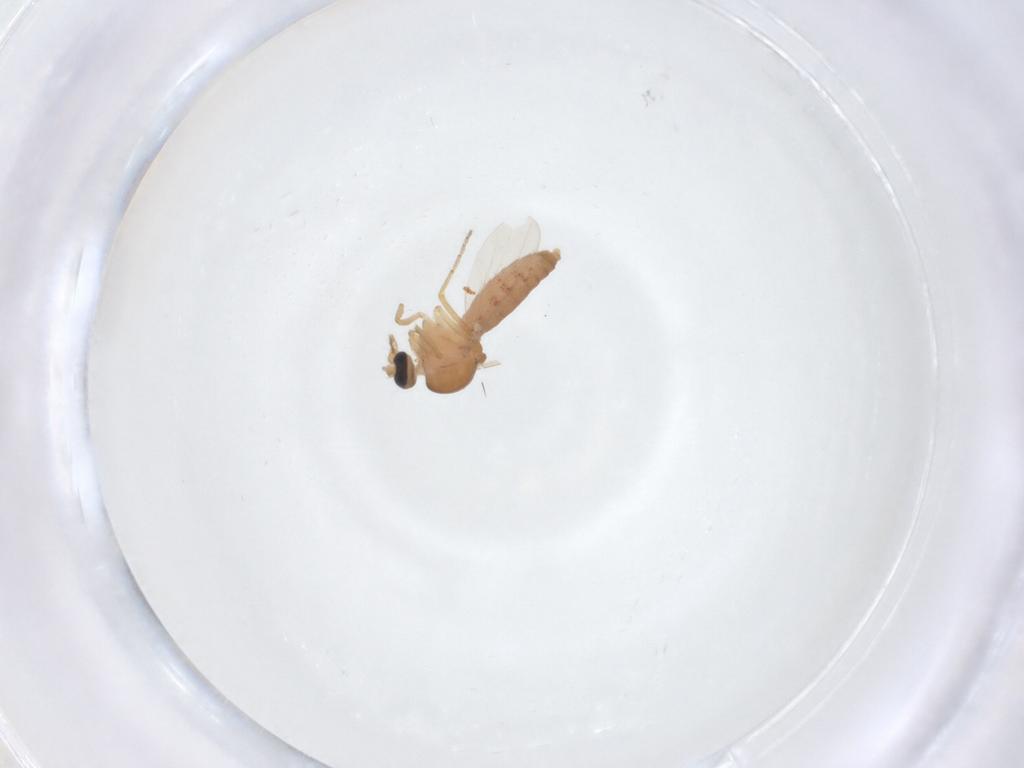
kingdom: Animalia
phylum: Arthropoda
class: Insecta
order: Diptera
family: Ceratopogonidae
